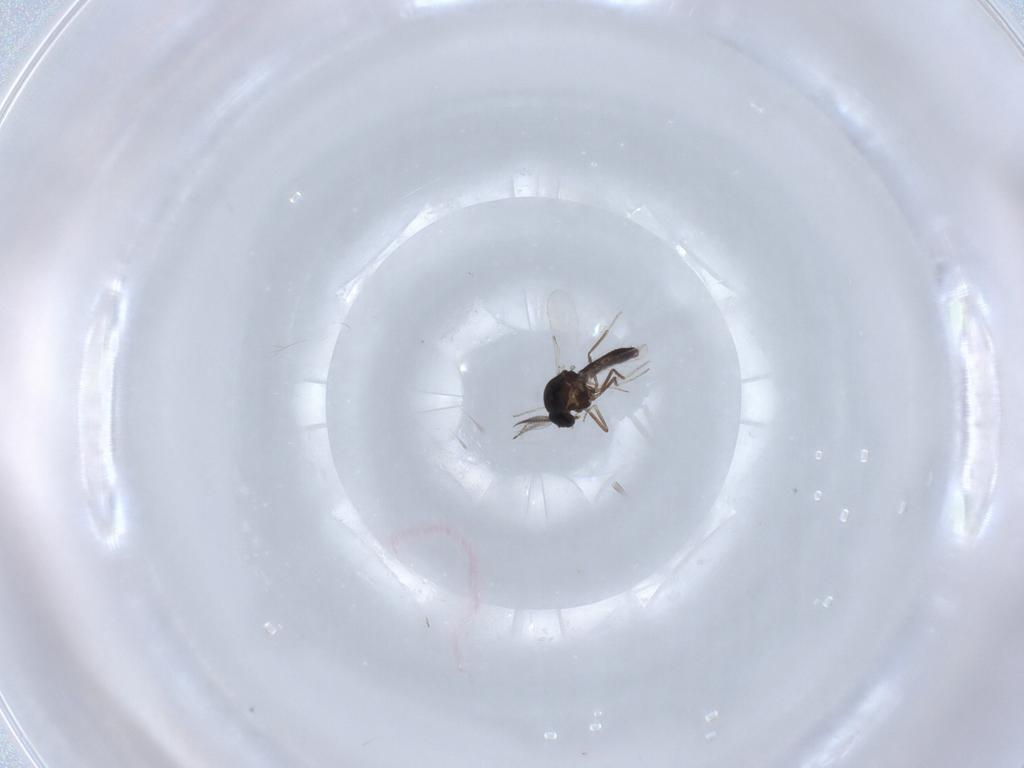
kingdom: Animalia
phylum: Arthropoda
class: Insecta
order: Diptera
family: Ceratopogonidae
